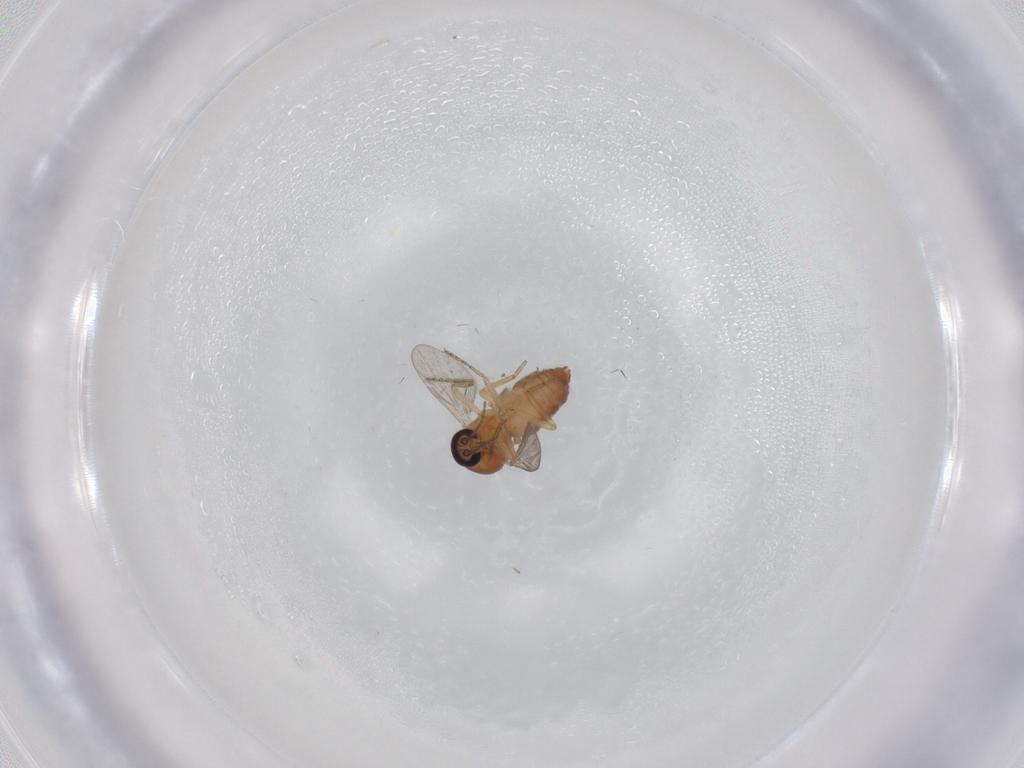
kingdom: Animalia
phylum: Arthropoda
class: Insecta
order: Diptera
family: Ceratopogonidae
